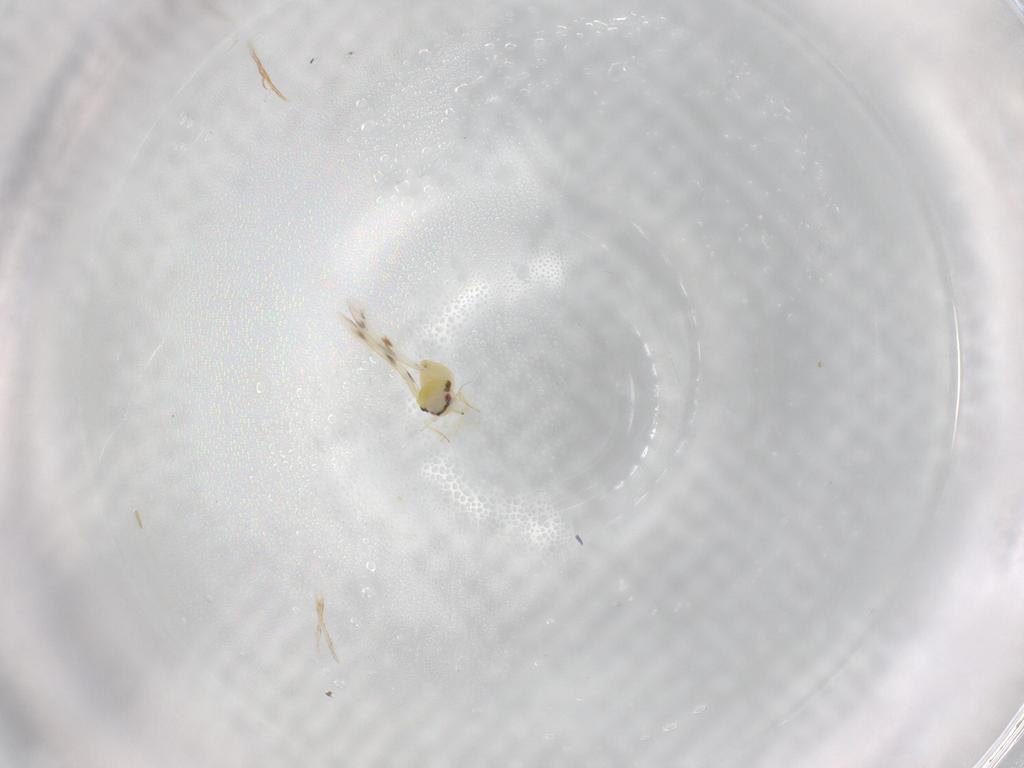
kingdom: Animalia
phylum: Arthropoda
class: Insecta
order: Hemiptera
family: Aleyrodidae
